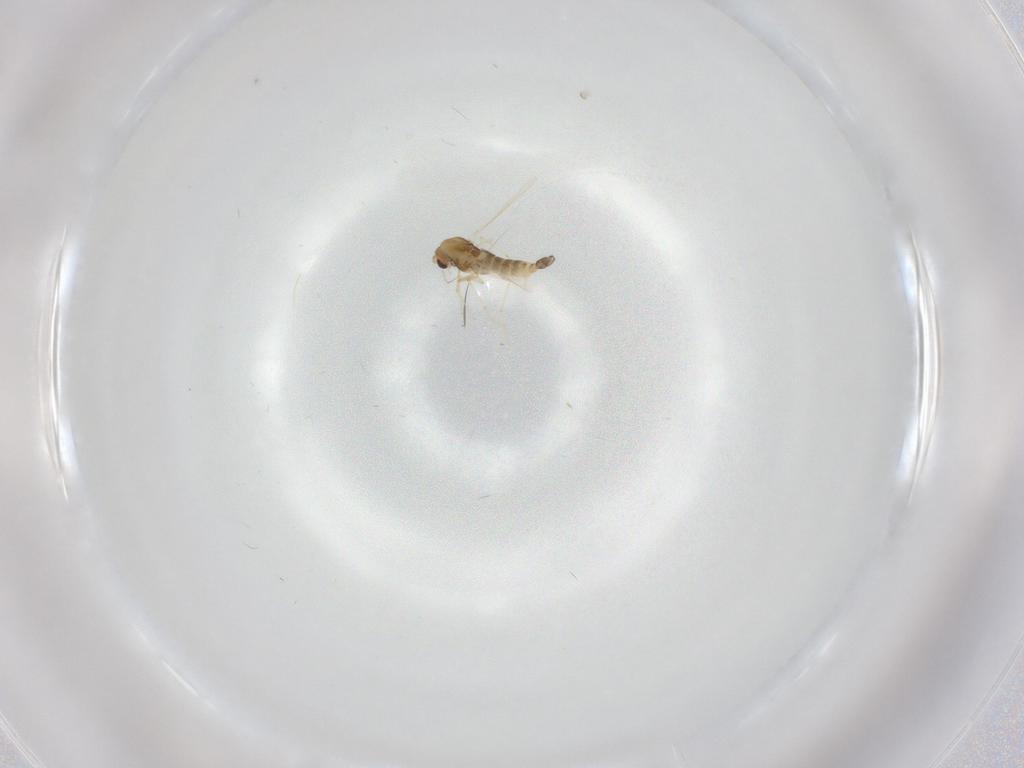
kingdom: Animalia
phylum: Arthropoda
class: Insecta
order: Diptera
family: Chironomidae
